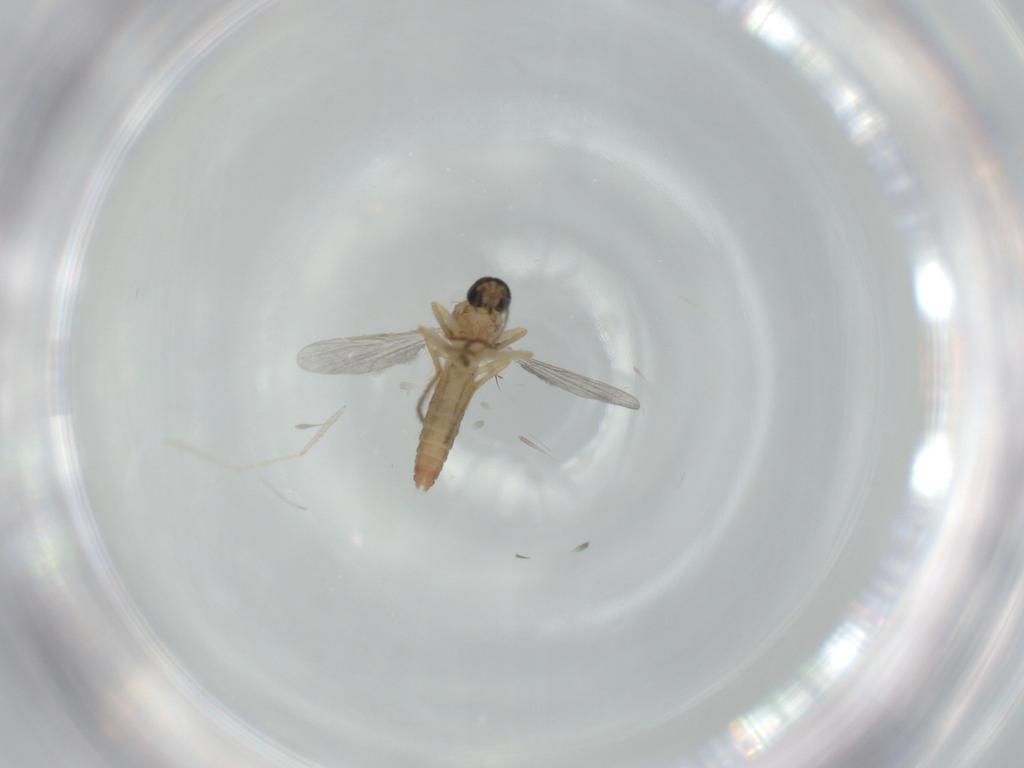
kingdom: Animalia
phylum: Arthropoda
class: Insecta
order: Diptera
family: Ceratopogonidae
